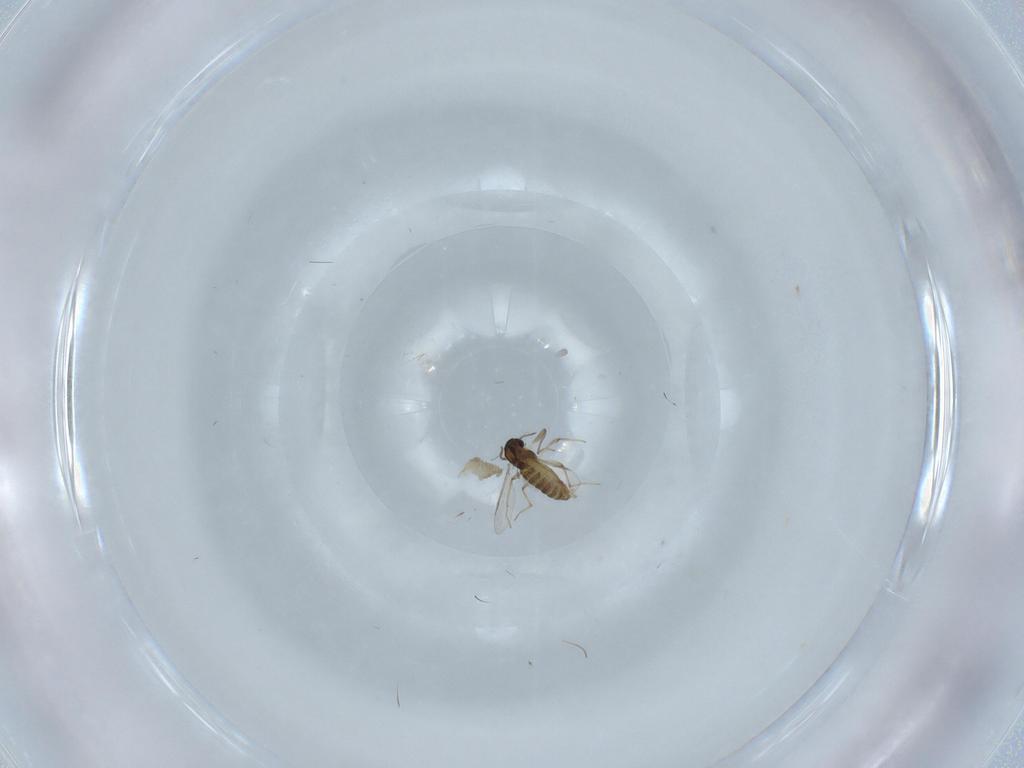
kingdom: Animalia
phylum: Arthropoda
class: Insecta
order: Diptera
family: Chironomidae
